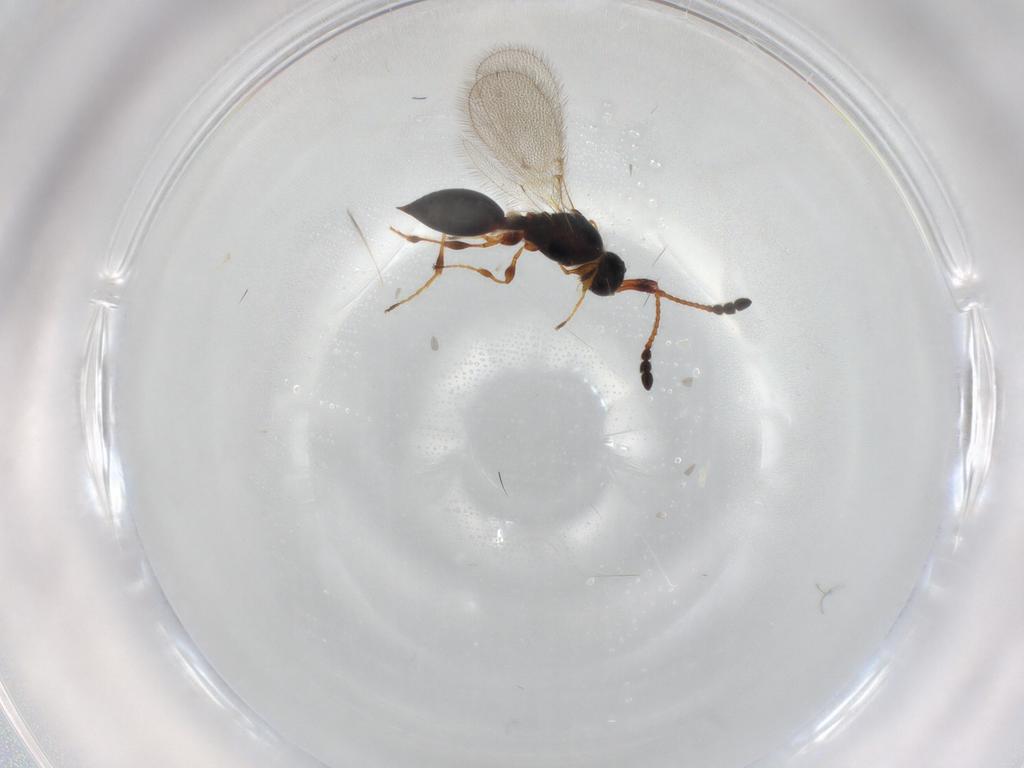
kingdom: Animalia
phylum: Arthropoda
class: Insecta
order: Hymenoptera
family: Diapriidae
